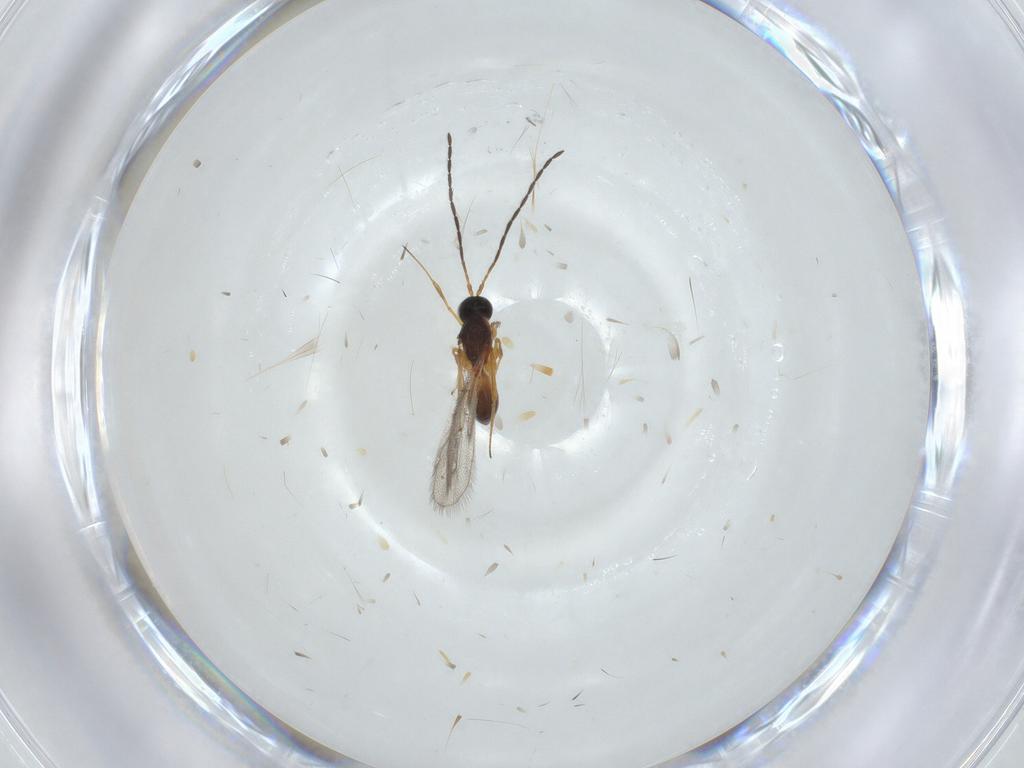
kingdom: Animalia
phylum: Arthropoda
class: Insecta
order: Hymenoptera
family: Figitidae
